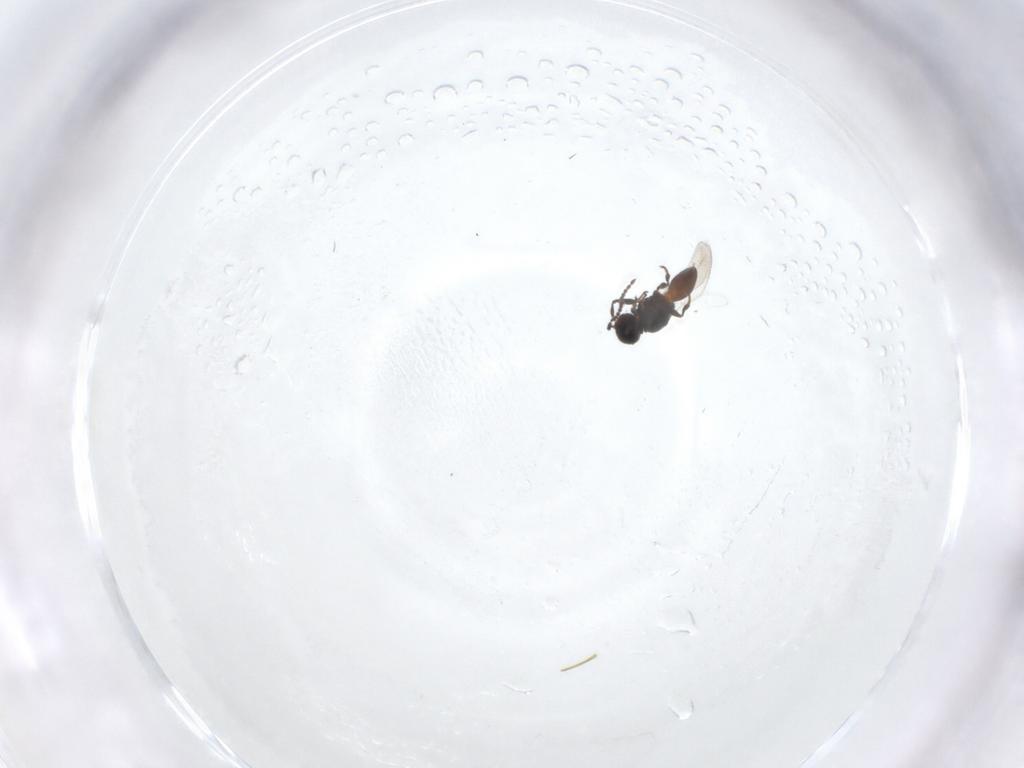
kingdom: Animalia
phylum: Arthropoda
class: Insecta
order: Hymenoptera
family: Platygastridae
